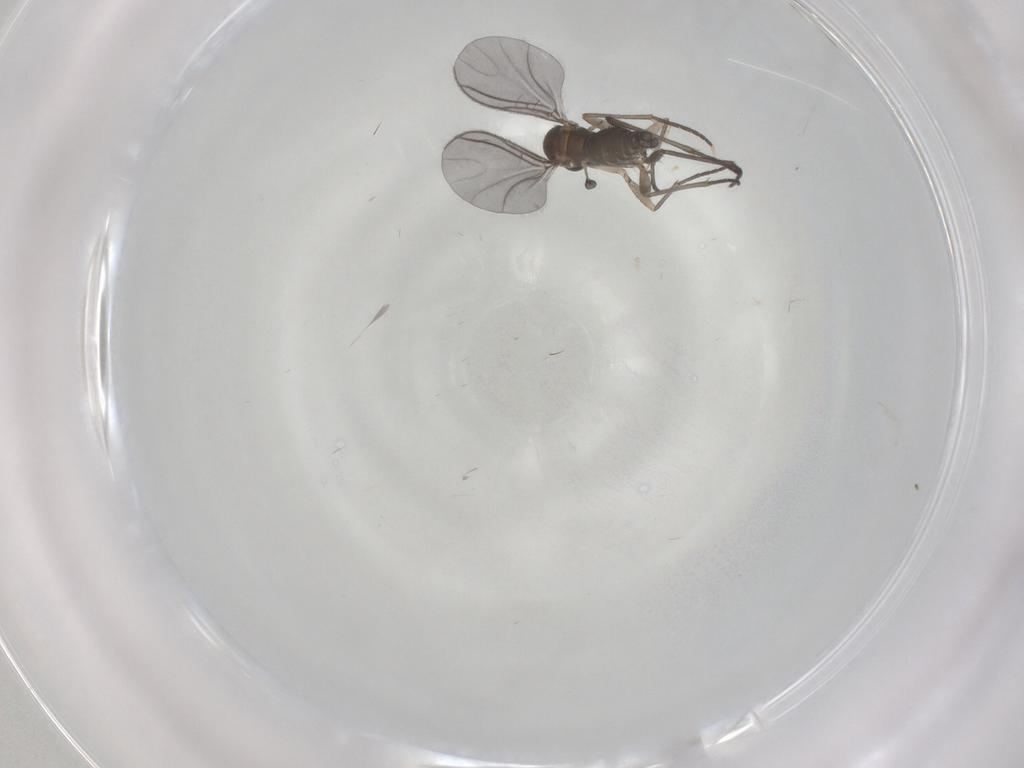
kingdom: Animalia
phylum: Arthropoda
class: Insecta
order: Diptera
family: Sciaridae
